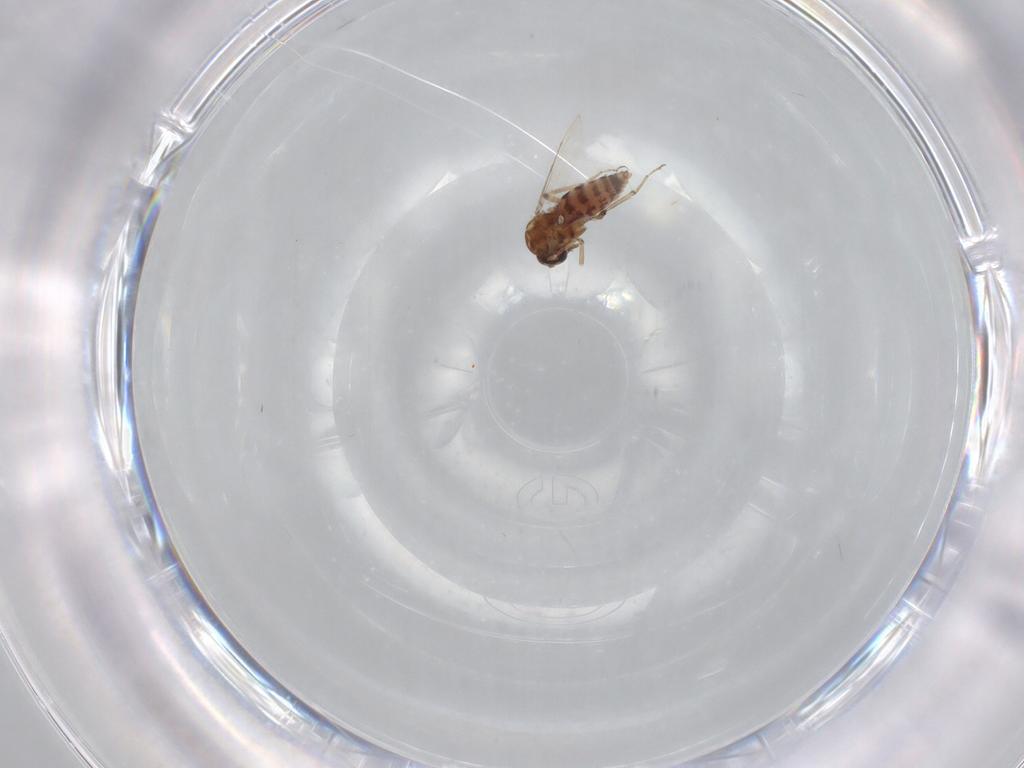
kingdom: Animalia
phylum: Arthropoda
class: Insecta
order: Diptera
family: Ceratopogonidae
